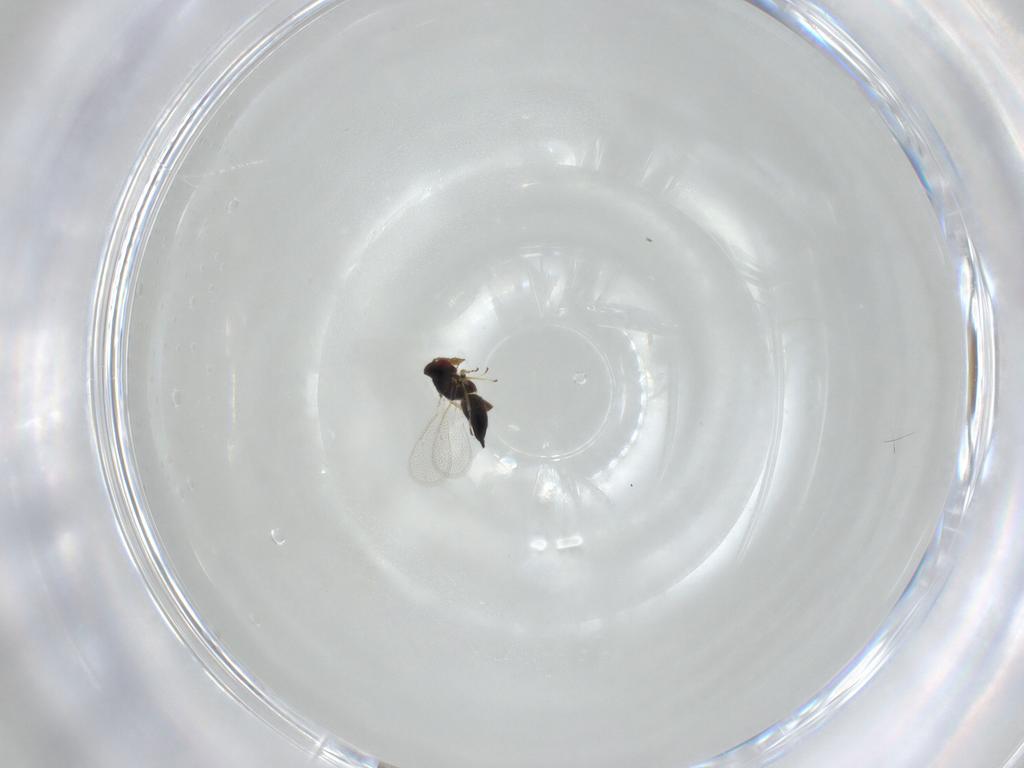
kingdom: Animalia
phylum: Arthropoda
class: Insecta
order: Hymenoptera
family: Eulophidae
